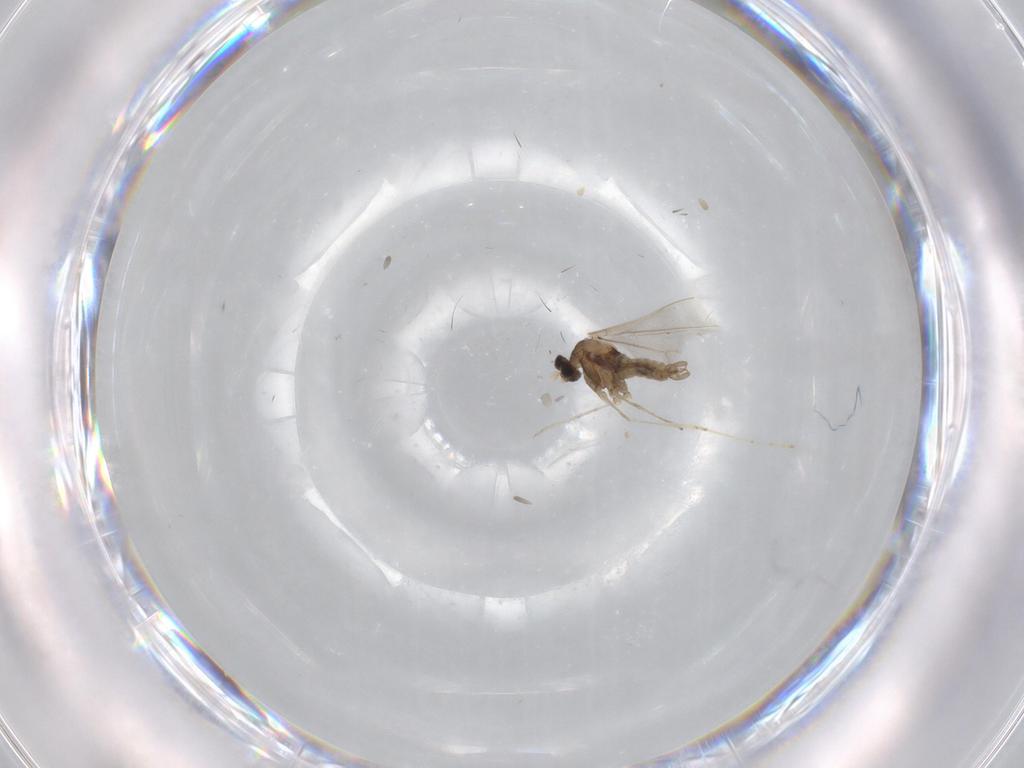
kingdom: Animalia
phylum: Arthropoda
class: Insecta
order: Diptera
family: Cecidomyiidae
